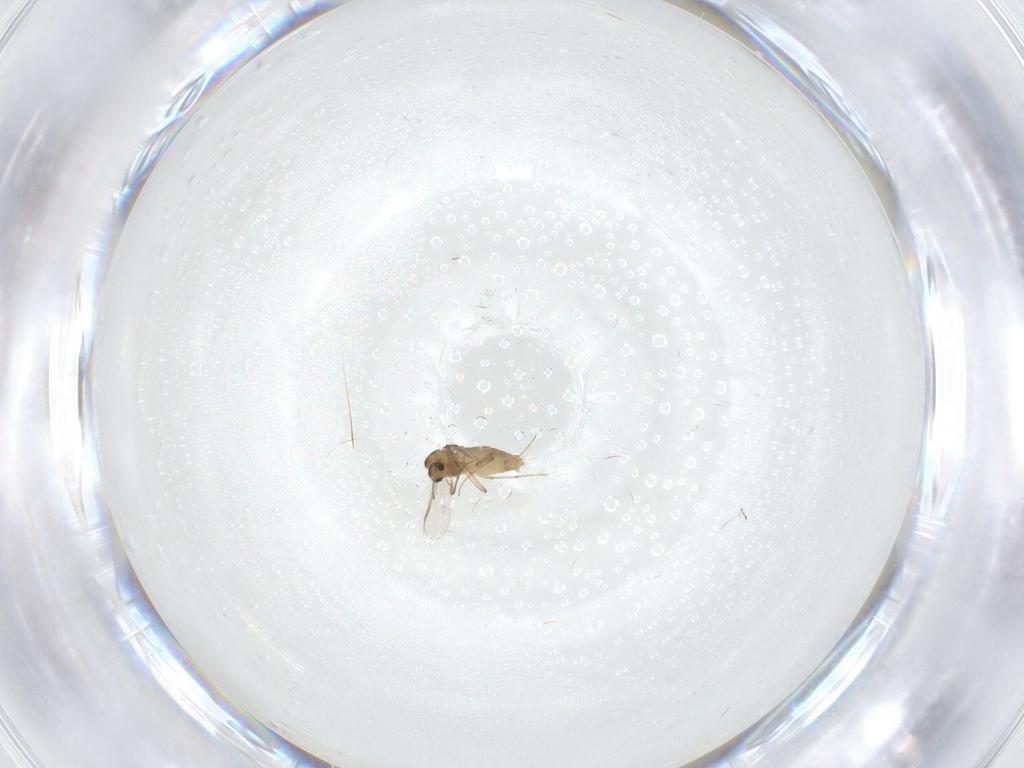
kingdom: Animalia
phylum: Arthropoda
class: Insecta
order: Diptera
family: Chironomidae
